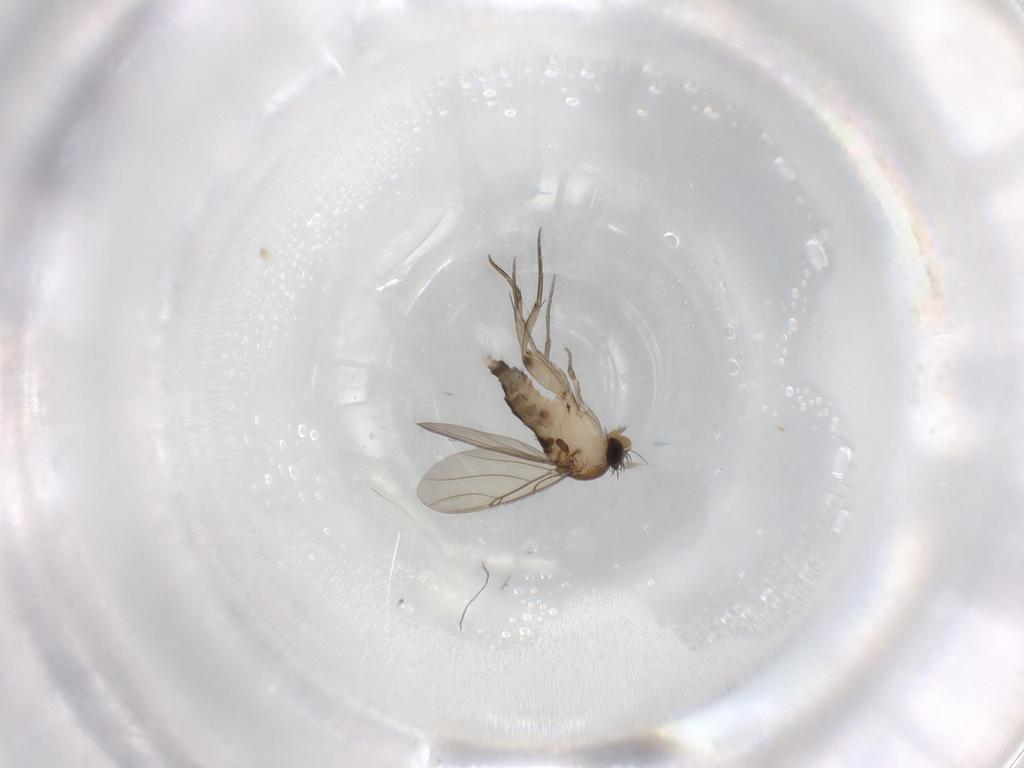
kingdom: Animalia
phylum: Arthropoda
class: Insecta
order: Diptera
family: Phoridae
